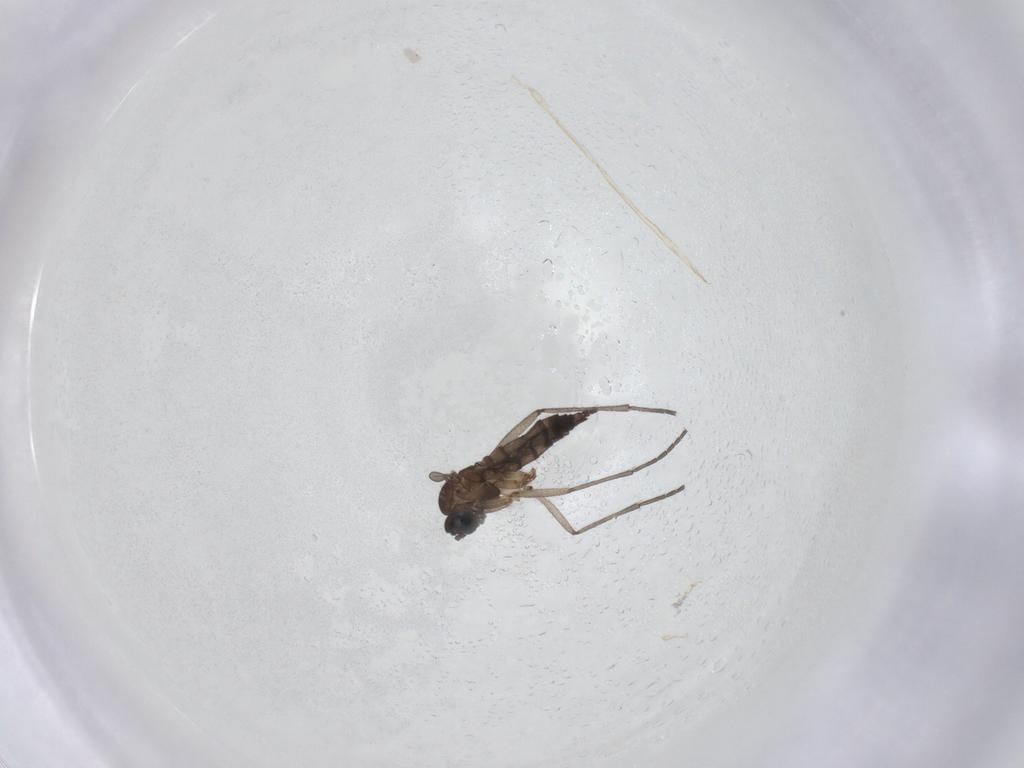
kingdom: Animalia
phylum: Arthropoda
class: Insecta
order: Diptera
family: Sciaridae
